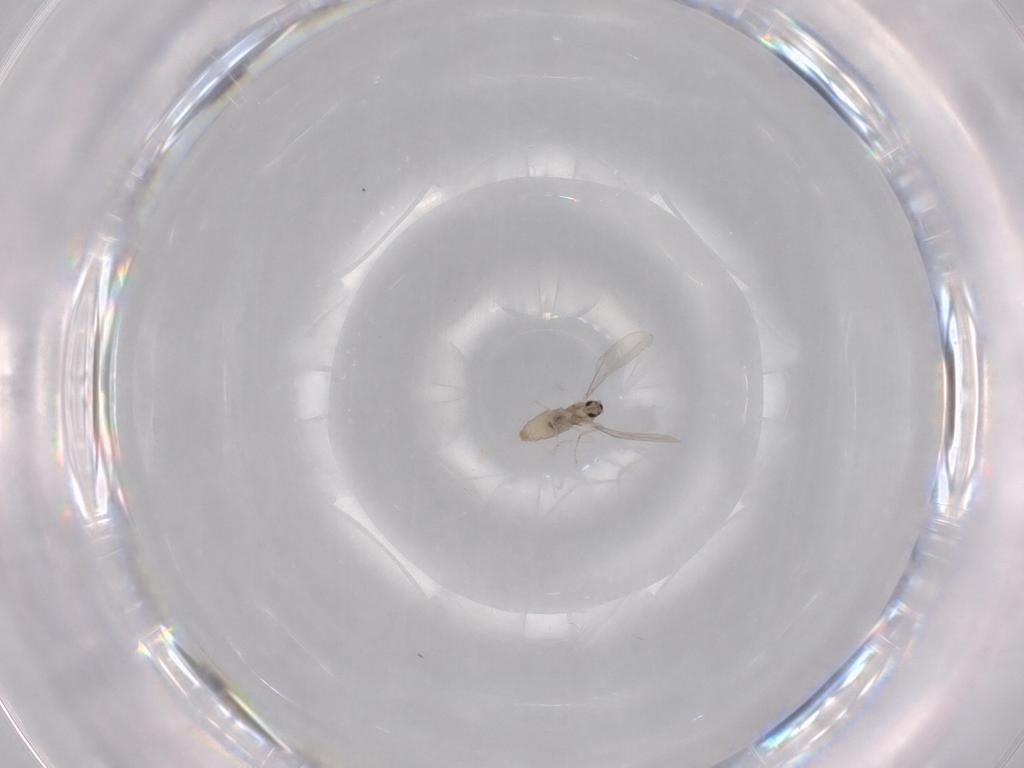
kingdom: Animalia
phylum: Arthropoda
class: Insecta
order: Diptera
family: Cecidomyiidae
